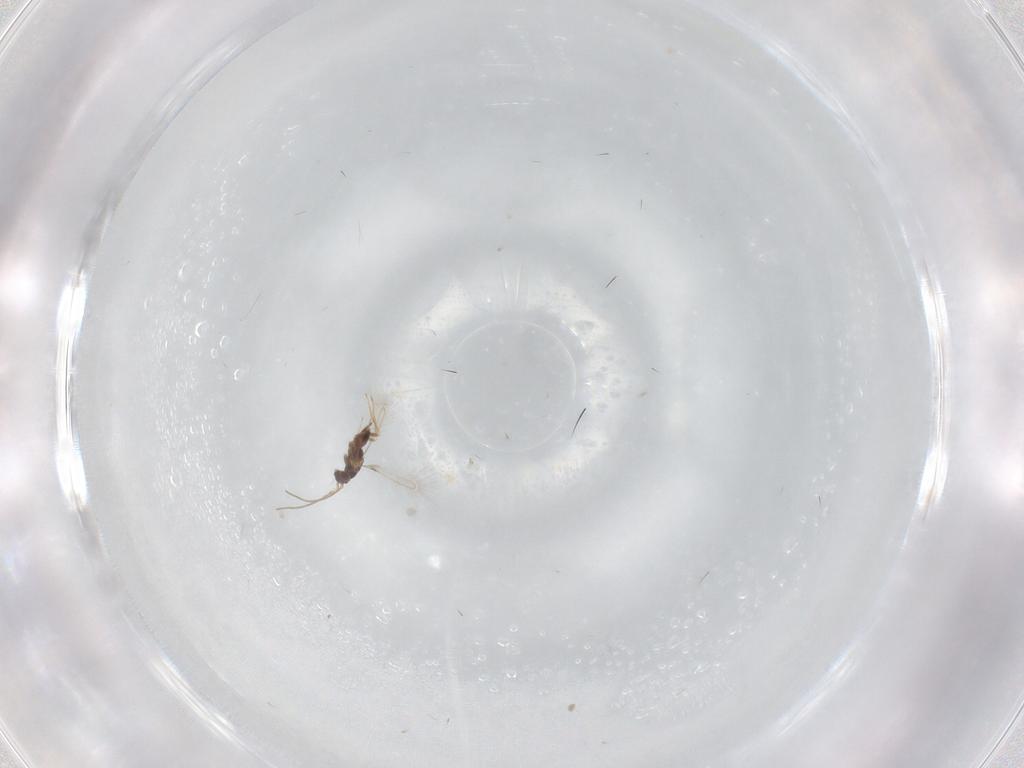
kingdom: Animalia
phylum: Arthropoda
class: Insecta
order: Hymenoptera
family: Mymaridae
